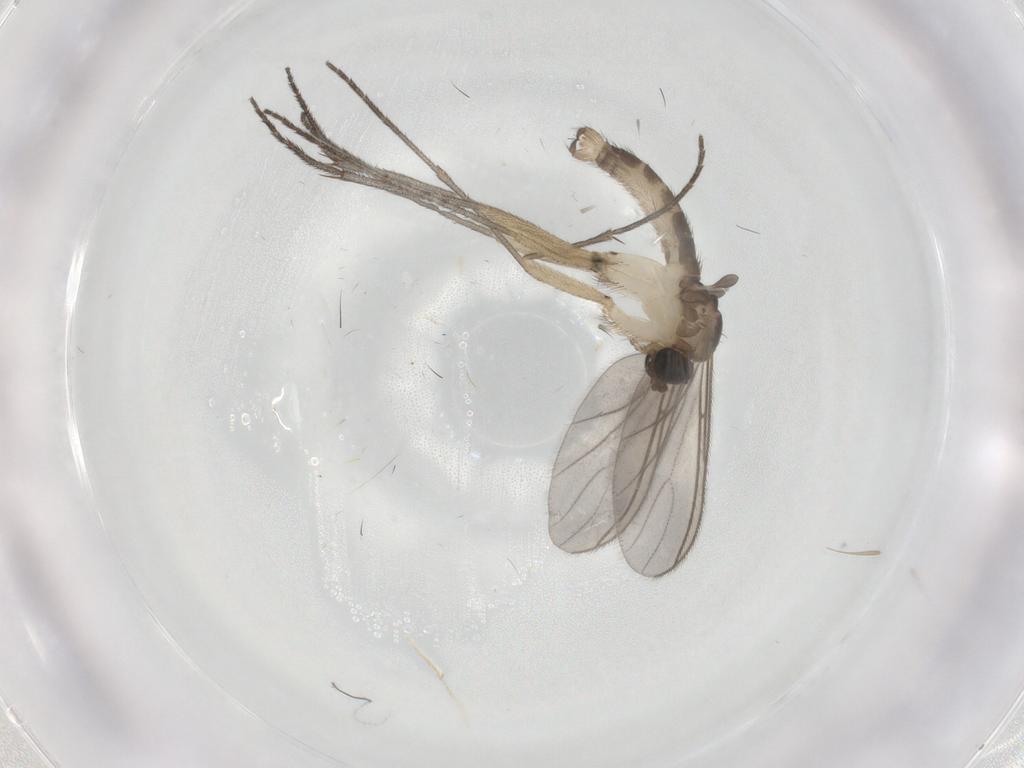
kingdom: Animalia
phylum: Arthropoda
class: Insecta
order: Diptera
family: Sciaridae
